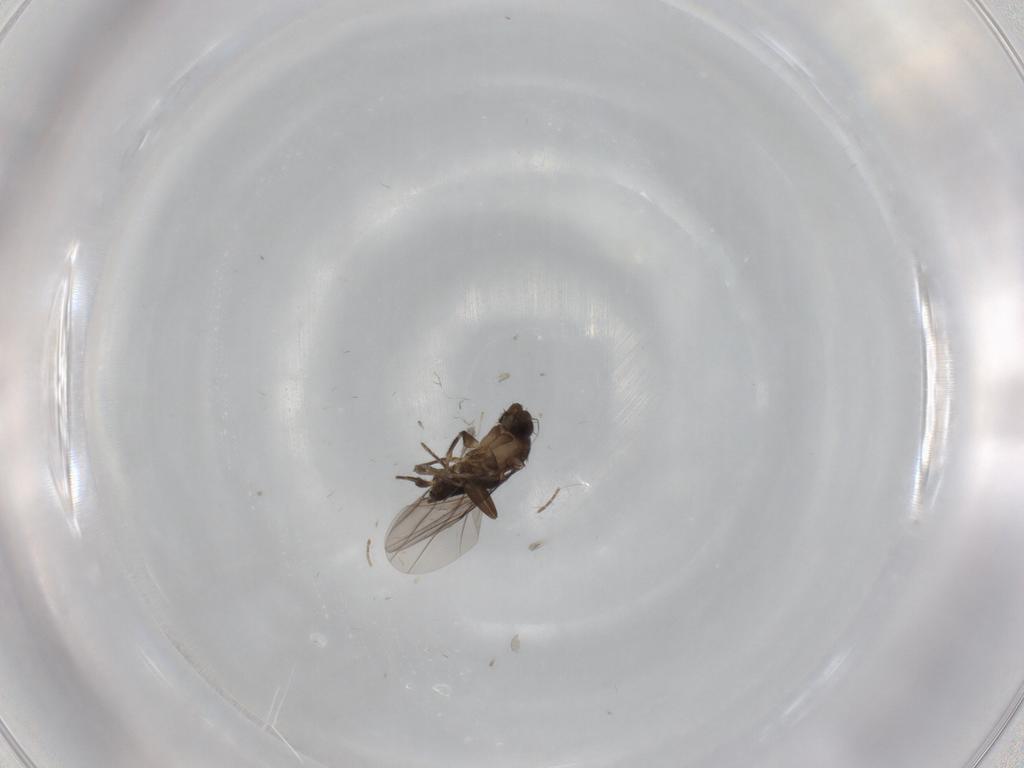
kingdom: Animalia
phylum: Arthropoda
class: Insecta
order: Diptera
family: Phoridae
